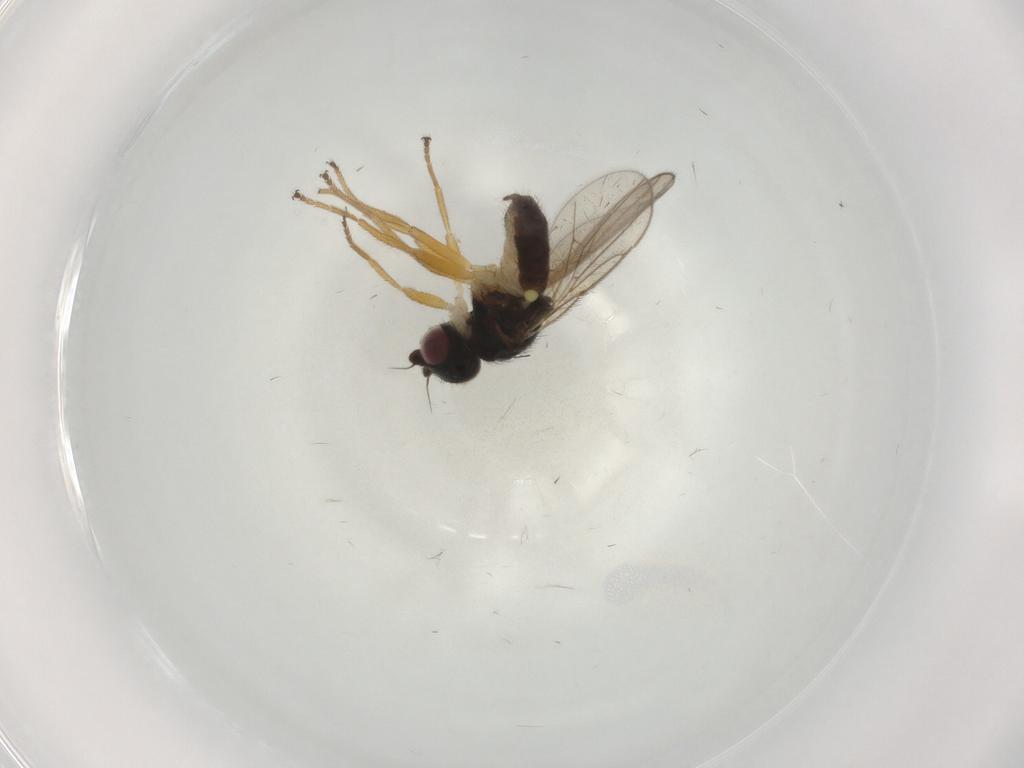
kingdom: Animalia
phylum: Arthropoda
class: Insecta
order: Diptera
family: Chloropidae
